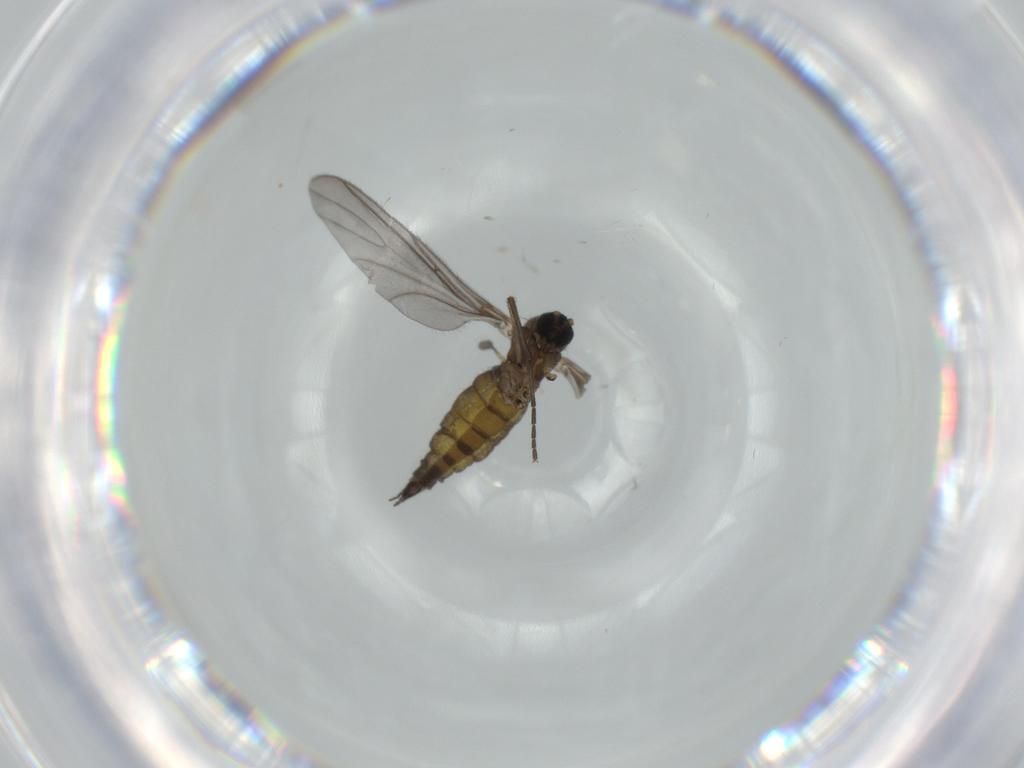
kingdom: Animalia
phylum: Arthropoda
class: Insecta
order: Diptera
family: Sciaridae
